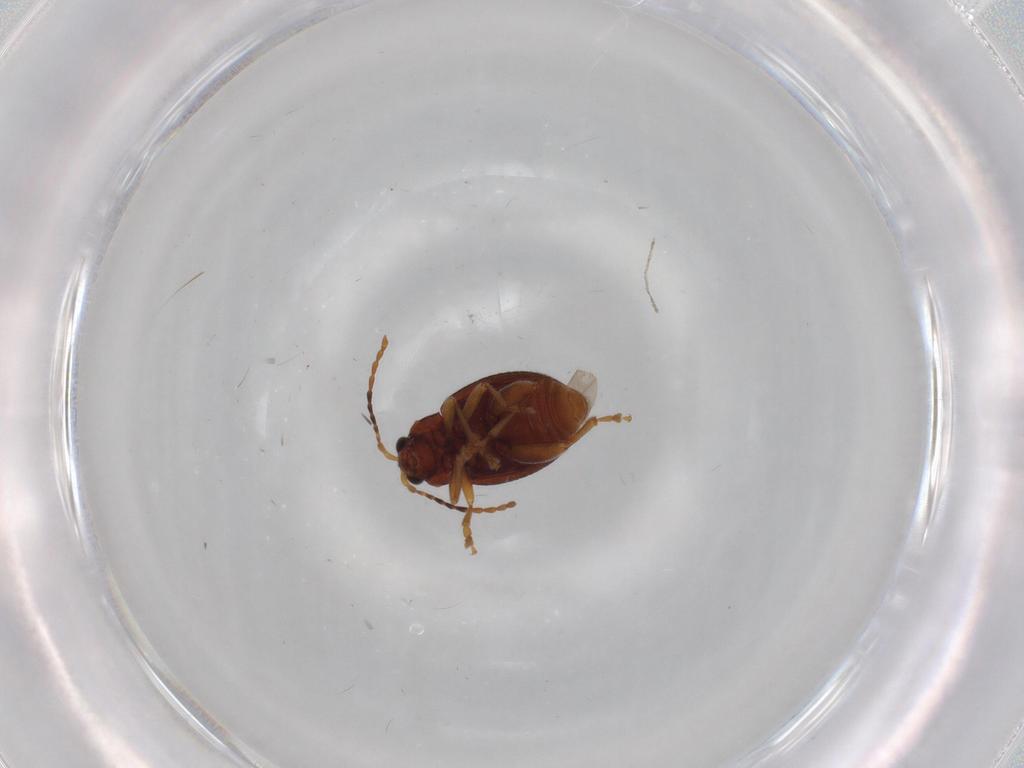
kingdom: Animalia
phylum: Arthropoda
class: Insecta
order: Coleoptera
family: Chrysomelidae
